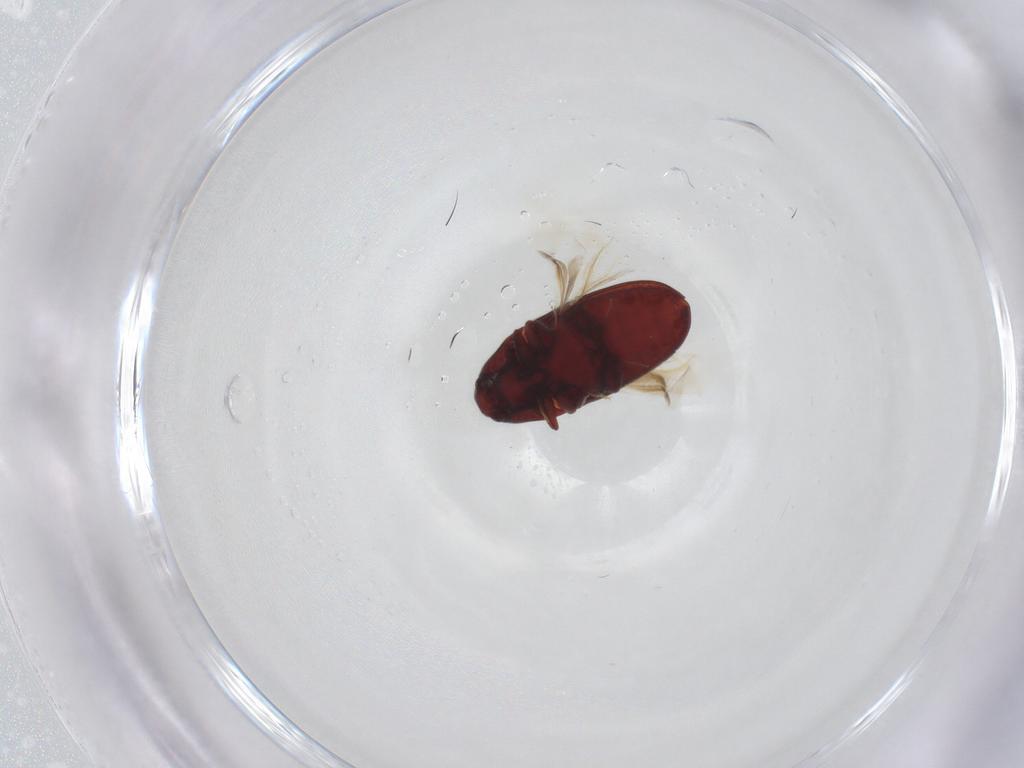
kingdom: Animalia
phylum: Arthropoda
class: Insecta
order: Coleoptera
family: Throscidae
